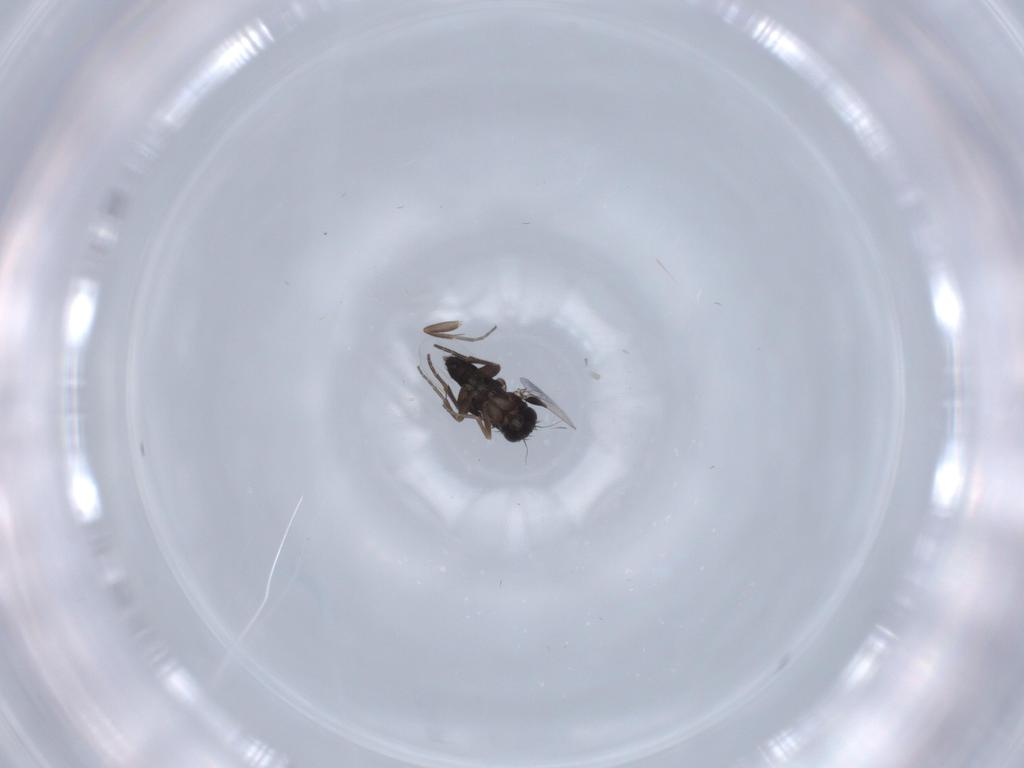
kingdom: Animalia
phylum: Arthropoda
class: Insecta
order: Diptera
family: Phoridae
